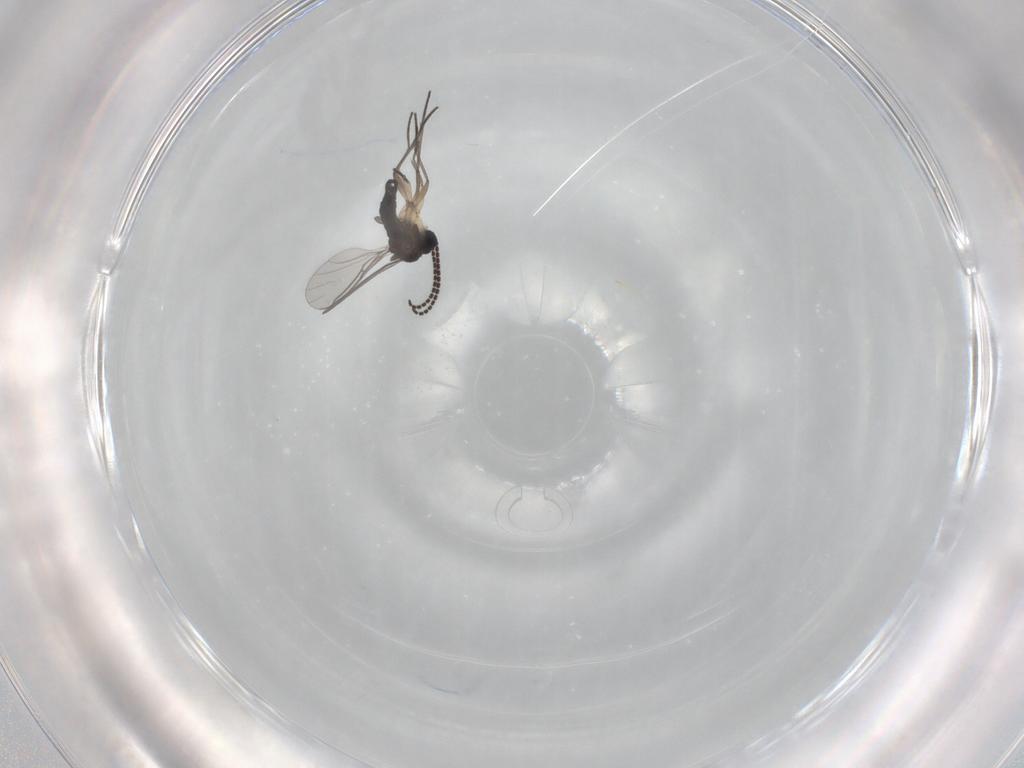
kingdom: Animalia
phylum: Arthropoda
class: Insecta
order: Diptera
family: Sciaridae
